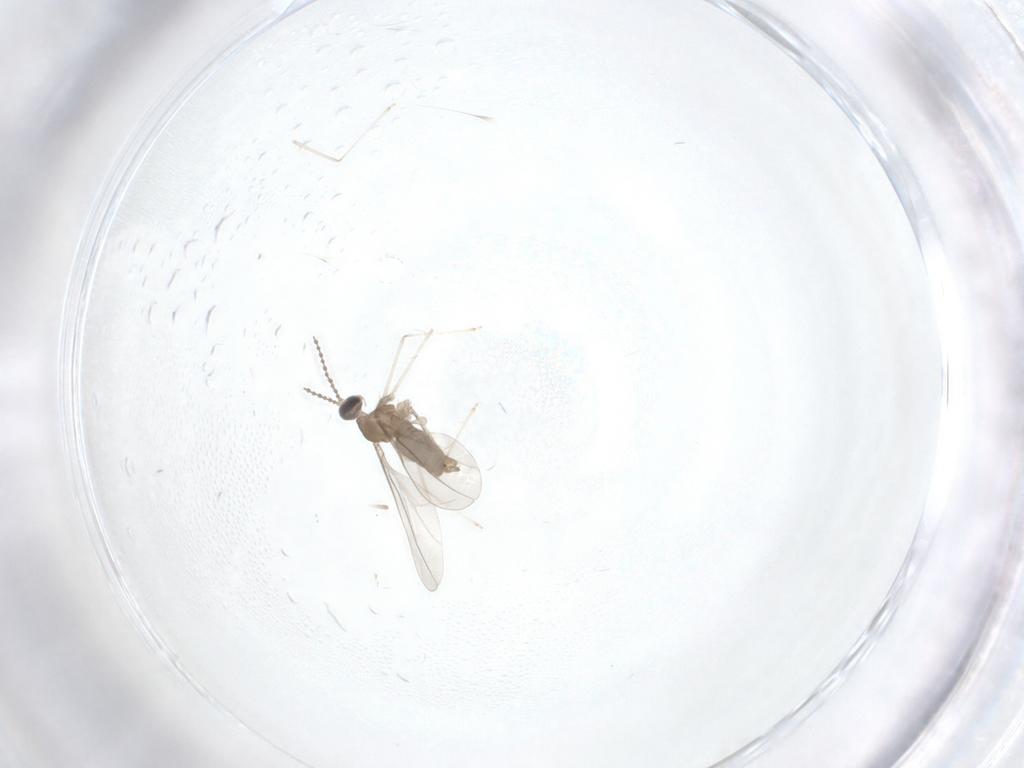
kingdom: Animalia
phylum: Arthropoda
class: Insecta
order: Diptera
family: Cecidomyiidae
